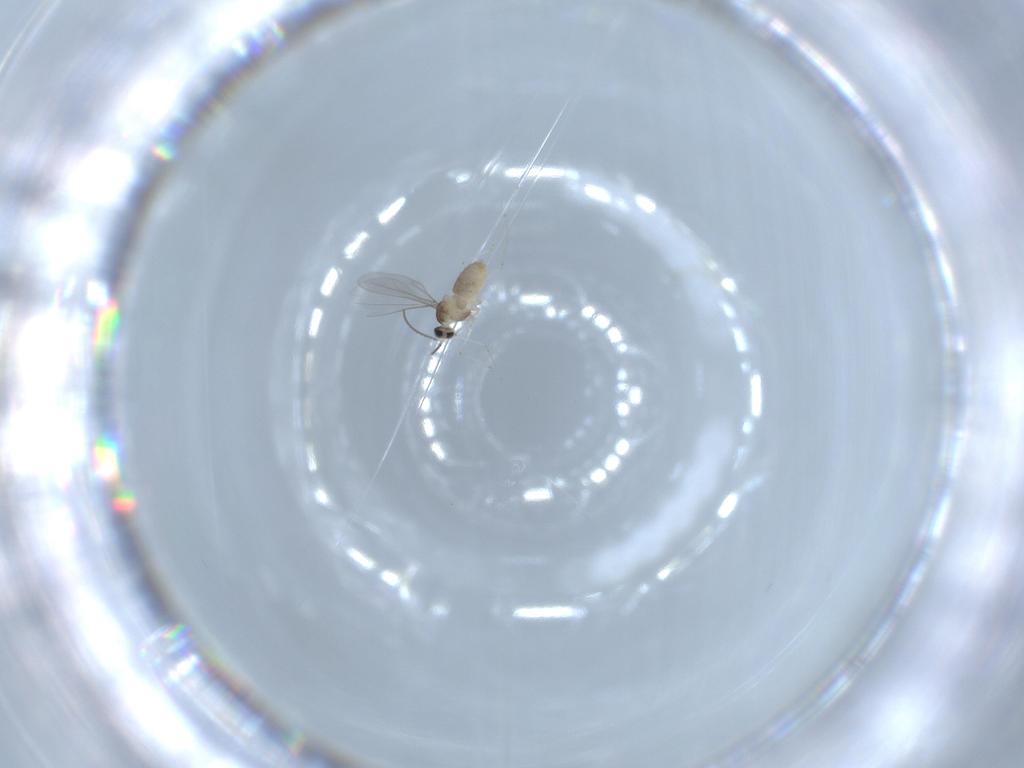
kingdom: Animalia
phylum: Arthropoda
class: Insecta
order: Diptera
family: Cecidomyiidae
